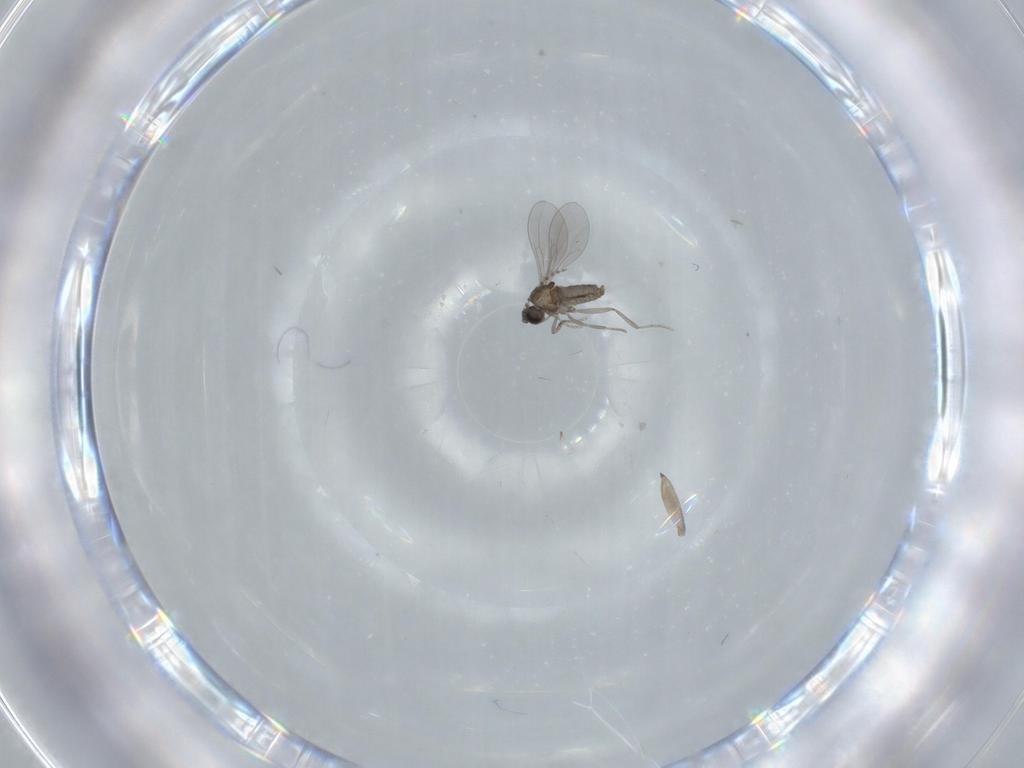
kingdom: Animalia
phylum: Arthropoda
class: Insecta
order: Diptera
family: Cecidomyiidae
